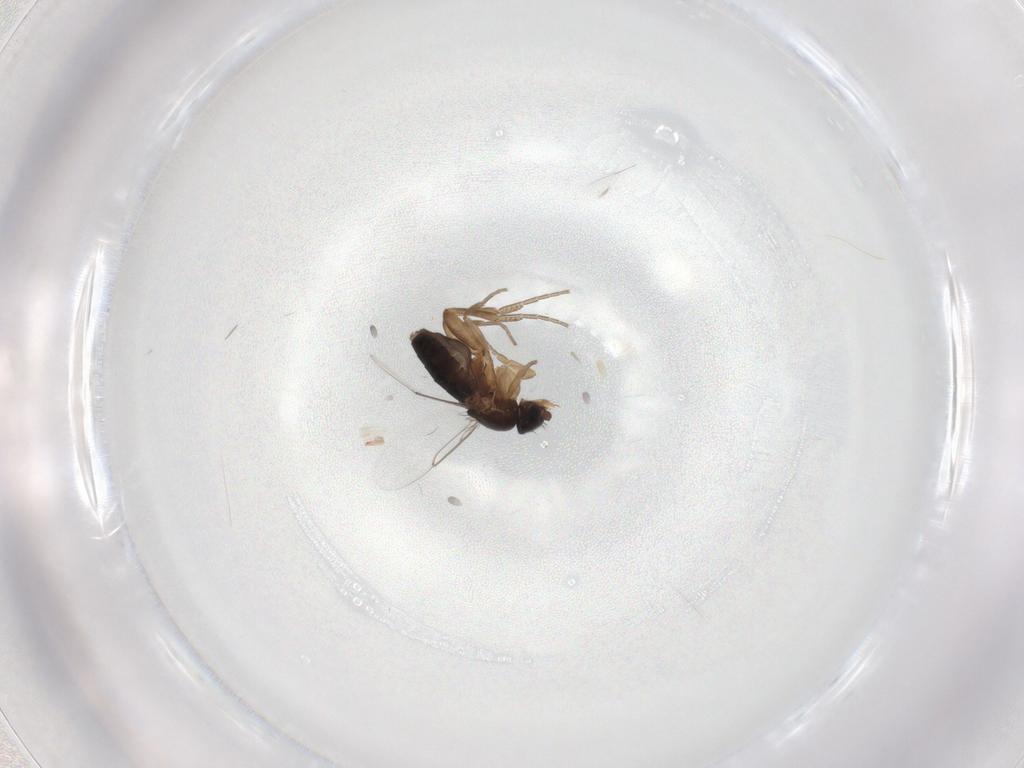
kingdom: Animalia
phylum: Arthropoda
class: Insecta
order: Diptera
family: Phoridae
